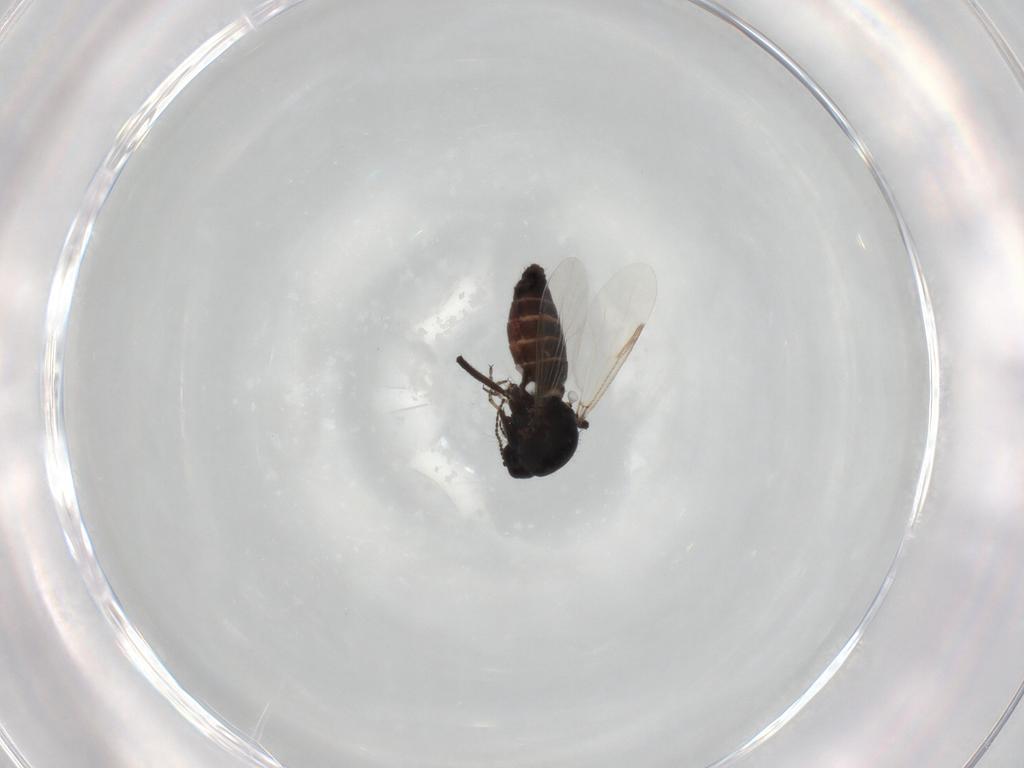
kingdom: Animalia
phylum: Arthropoda
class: Insecta
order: Diptera
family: Ceratopogonidae
